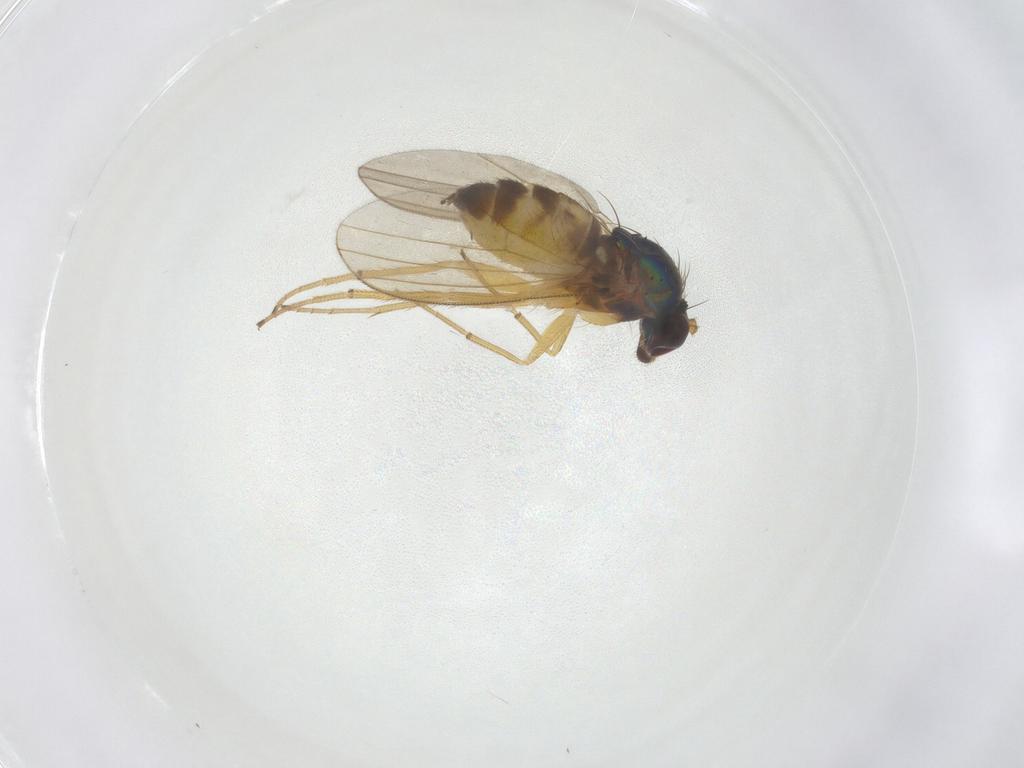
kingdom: Animalia
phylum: Arthropoda
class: Insecta
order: Diptera
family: Dolichopodidae
